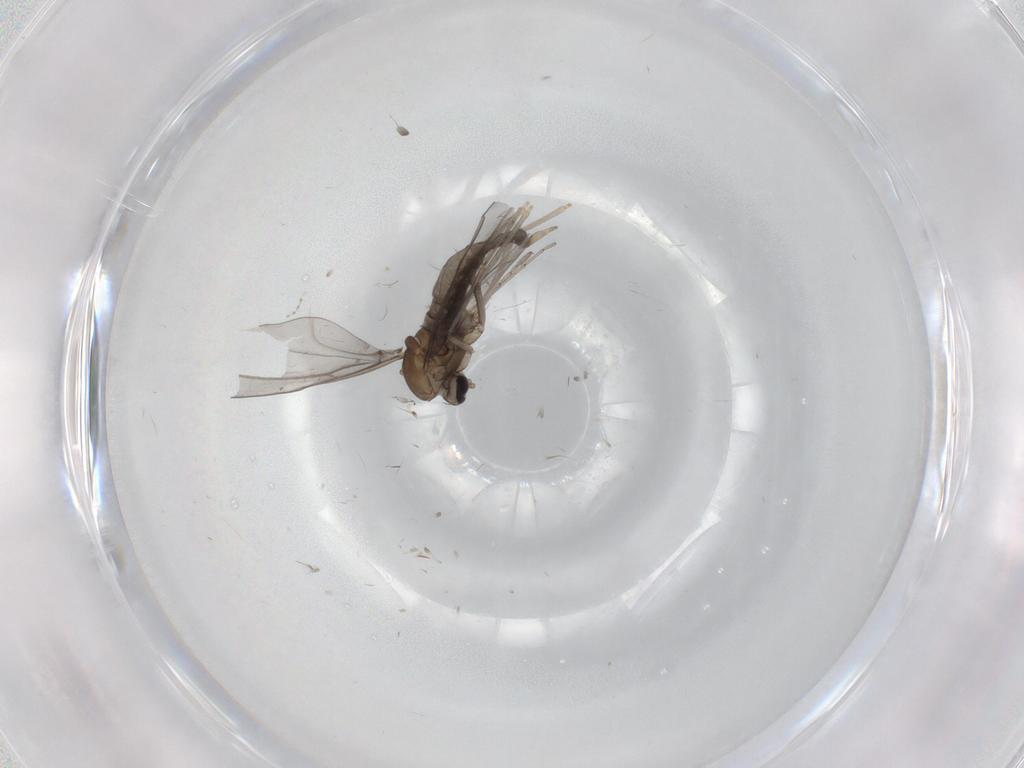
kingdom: Animalia
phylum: Arthropoda
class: Insecta
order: Diptera
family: Cecidomyiidae
